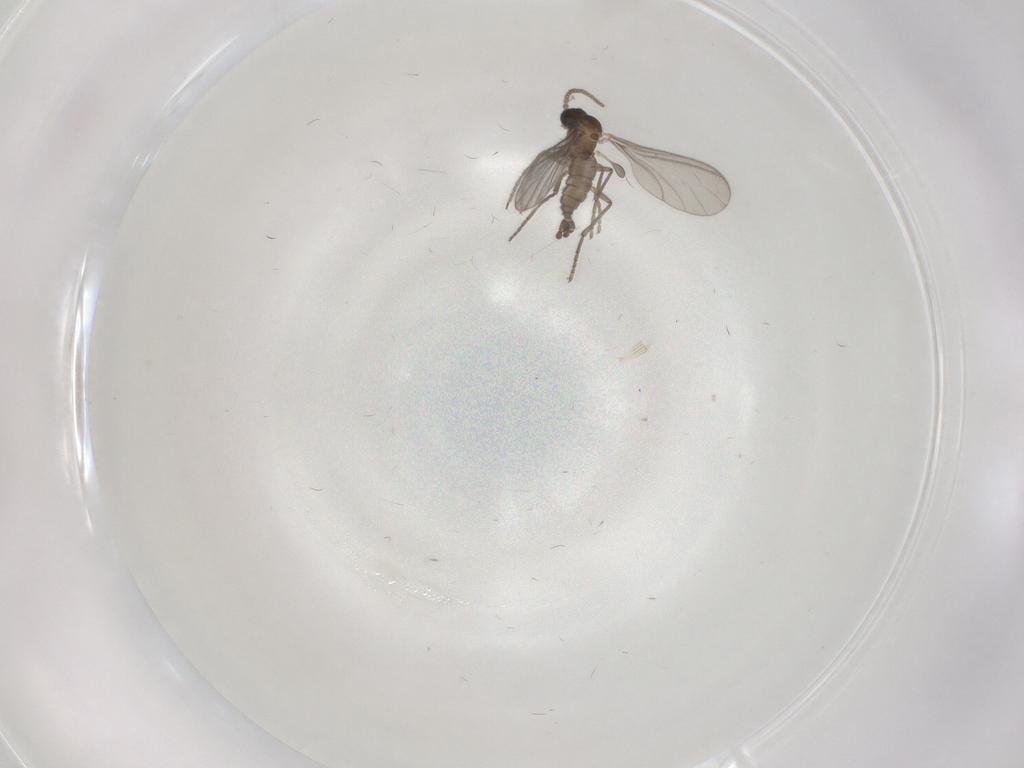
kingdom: Animalia
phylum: Arthropoda
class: Insecta
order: Diptera
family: Sciaridae
